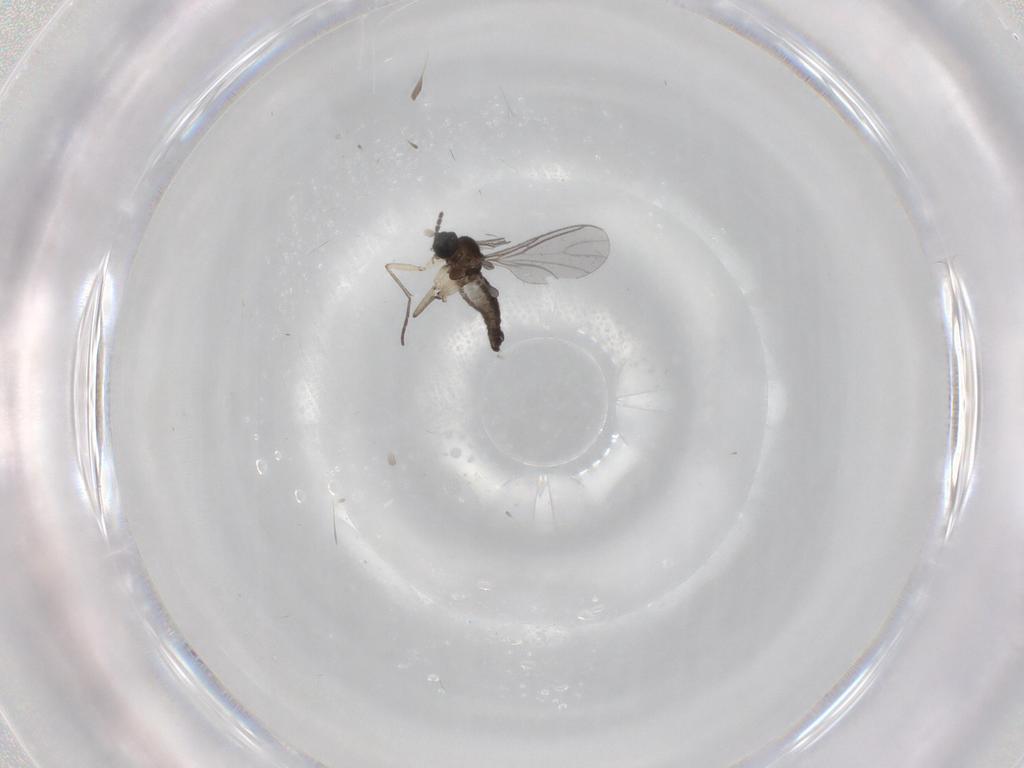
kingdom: Animalia
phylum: Arthropoda
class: Insecta
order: Diptera
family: Sciaridae
